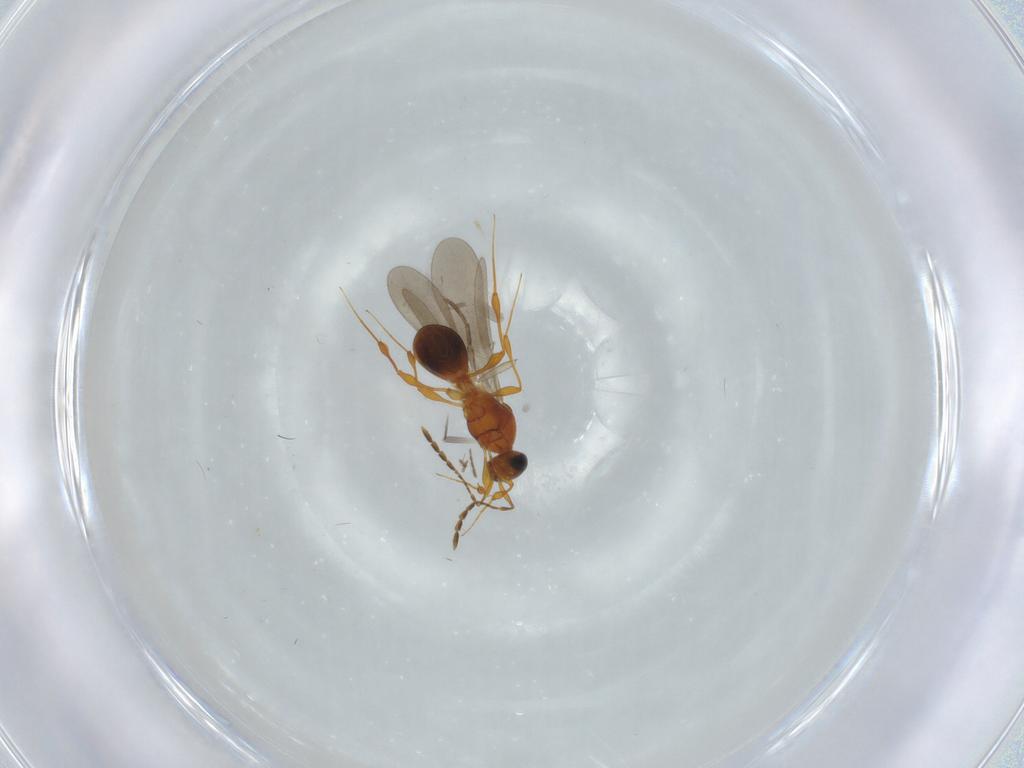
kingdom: Animalia
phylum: Arthropoda
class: Insecta
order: Hymenoptera
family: Platygastridae
